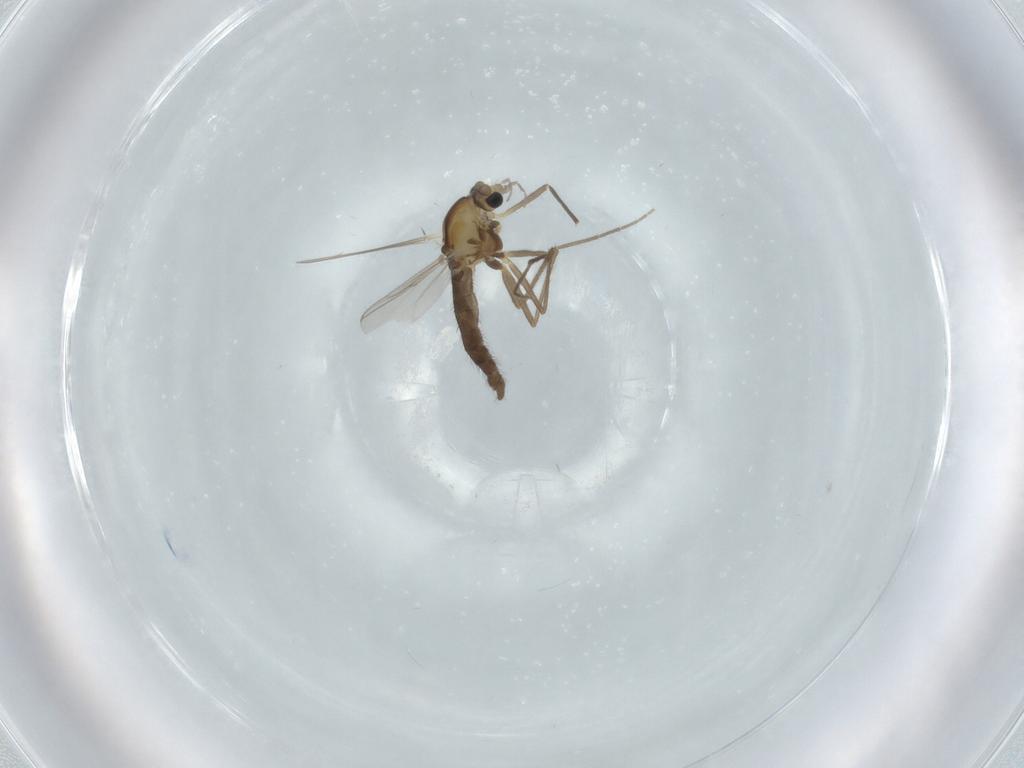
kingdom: Animalia
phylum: Arthropoda
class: Insecta
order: Diptera
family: Chironomidae
